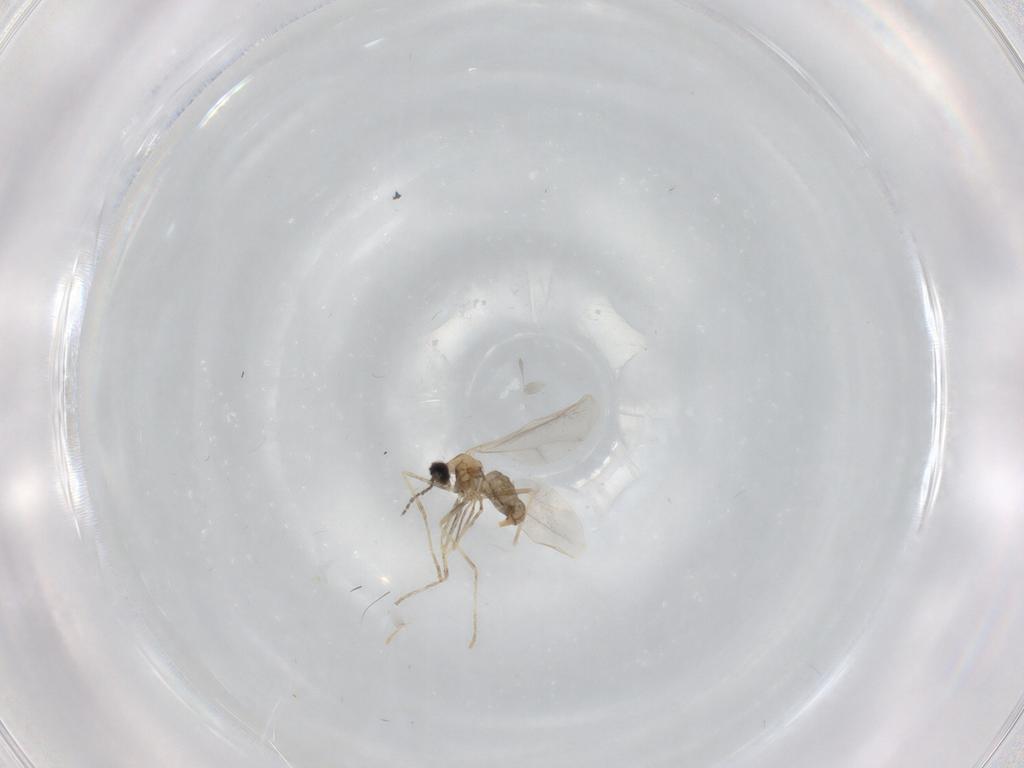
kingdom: Animalia
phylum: Arthropoda
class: Insecta
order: Diptera
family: Cecidomyiidae
